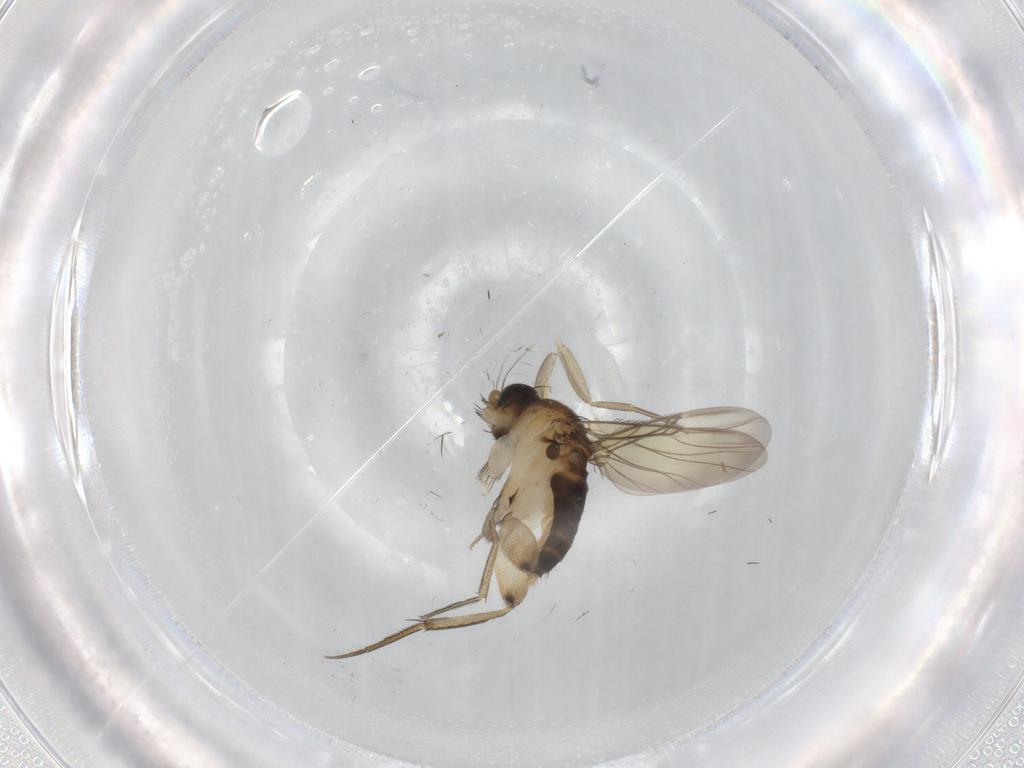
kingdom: Animalia
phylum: Arthropoda
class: Insecta
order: Diptera
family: Phoridae
